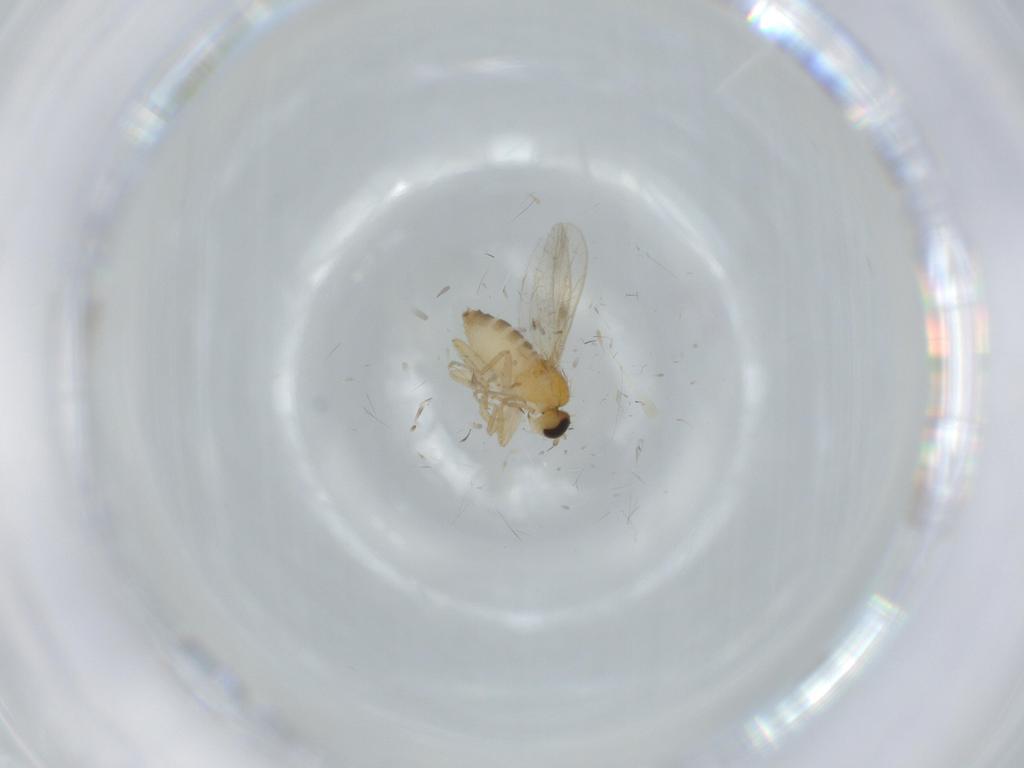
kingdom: Animalia
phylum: Arthropoda
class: Insecta
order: Diptera
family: Hybotidae
